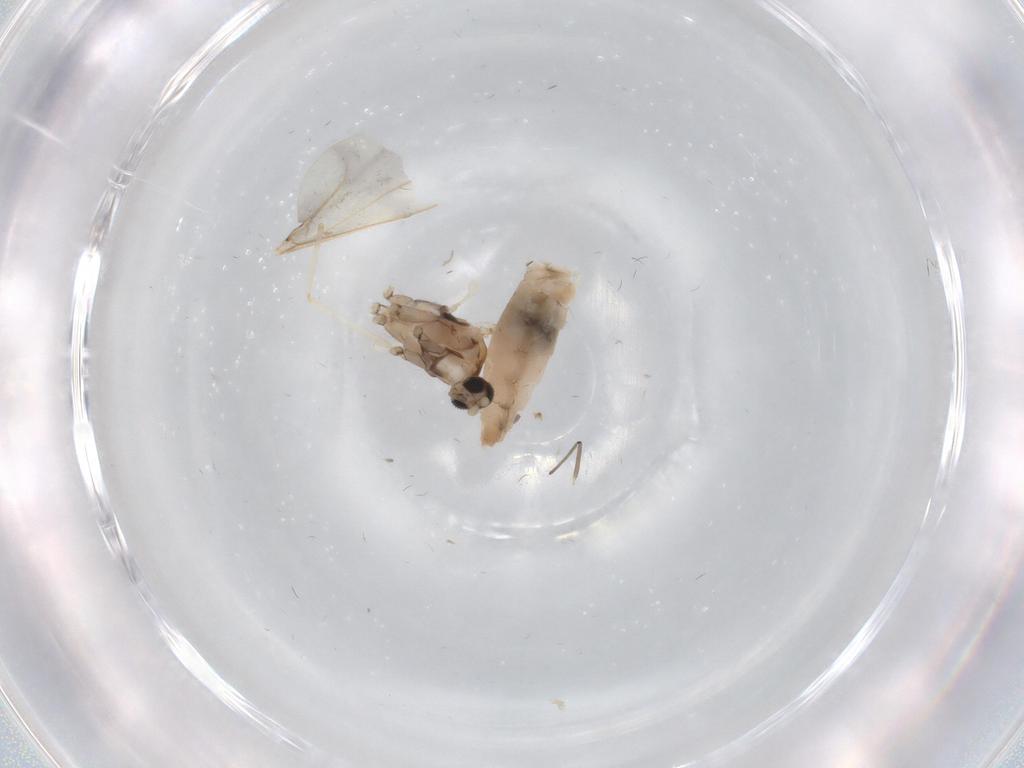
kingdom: Animalia
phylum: Arthropoda
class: Insecta
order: Diptera
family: Cecidomyiidae
